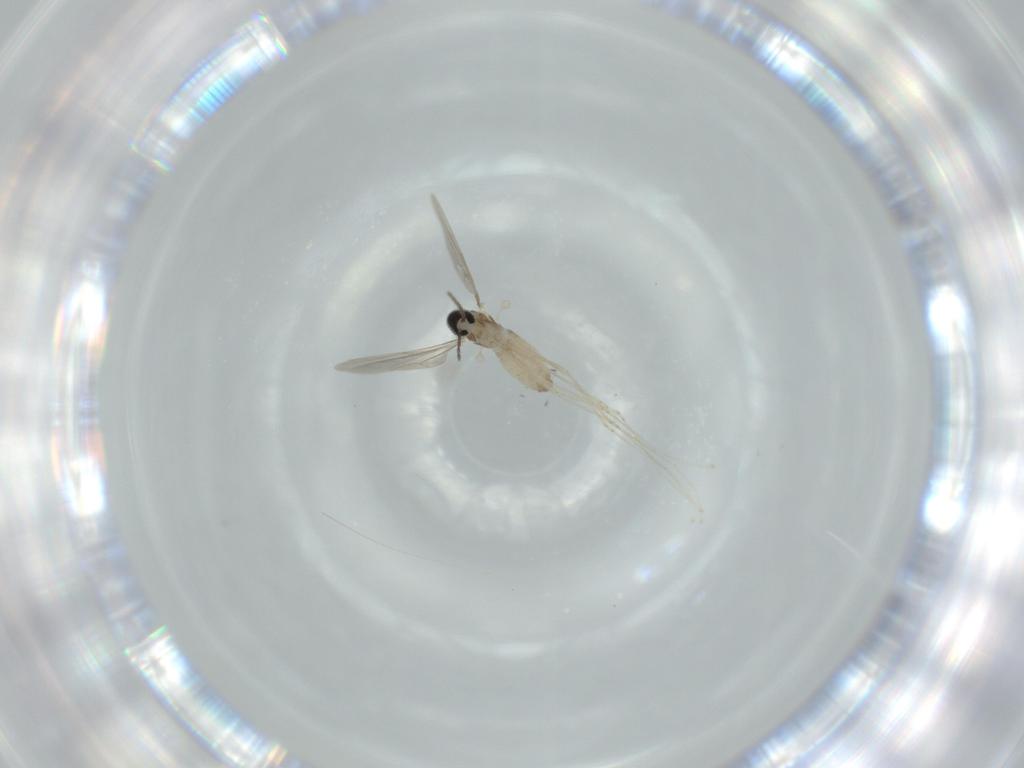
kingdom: Animalia
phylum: Arthropoda
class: Insecta
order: Diptera
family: Cecidomyiidae
